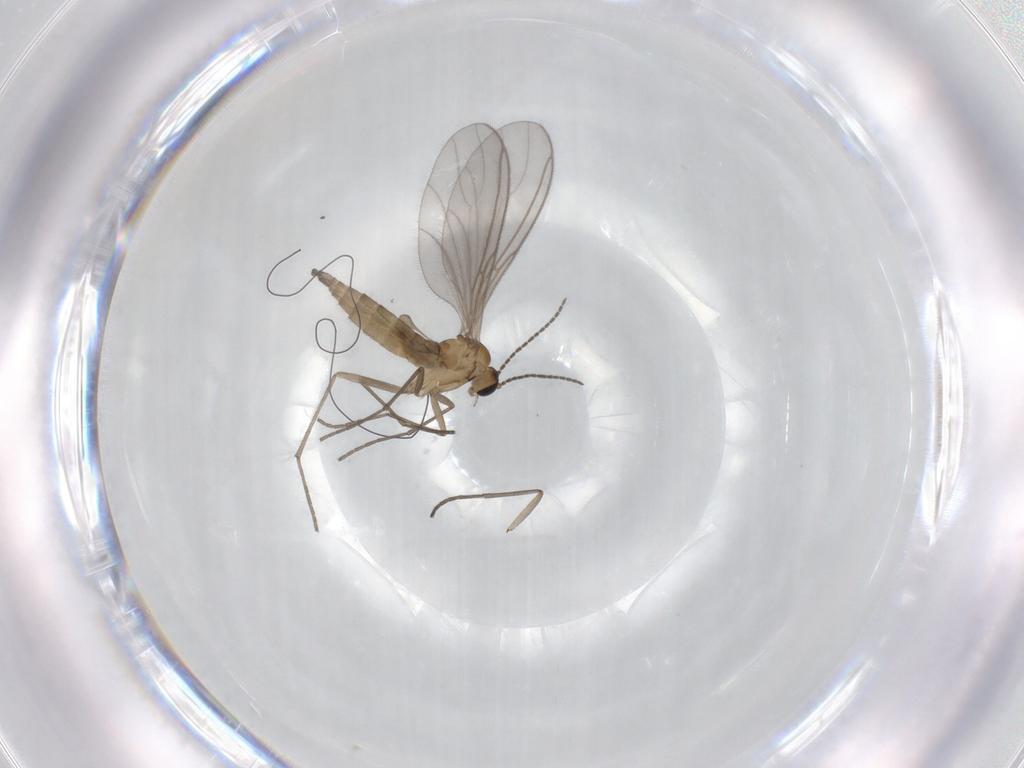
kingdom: Animalia
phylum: Arthropoda
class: Insecta
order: Diptera
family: Sciaridae
